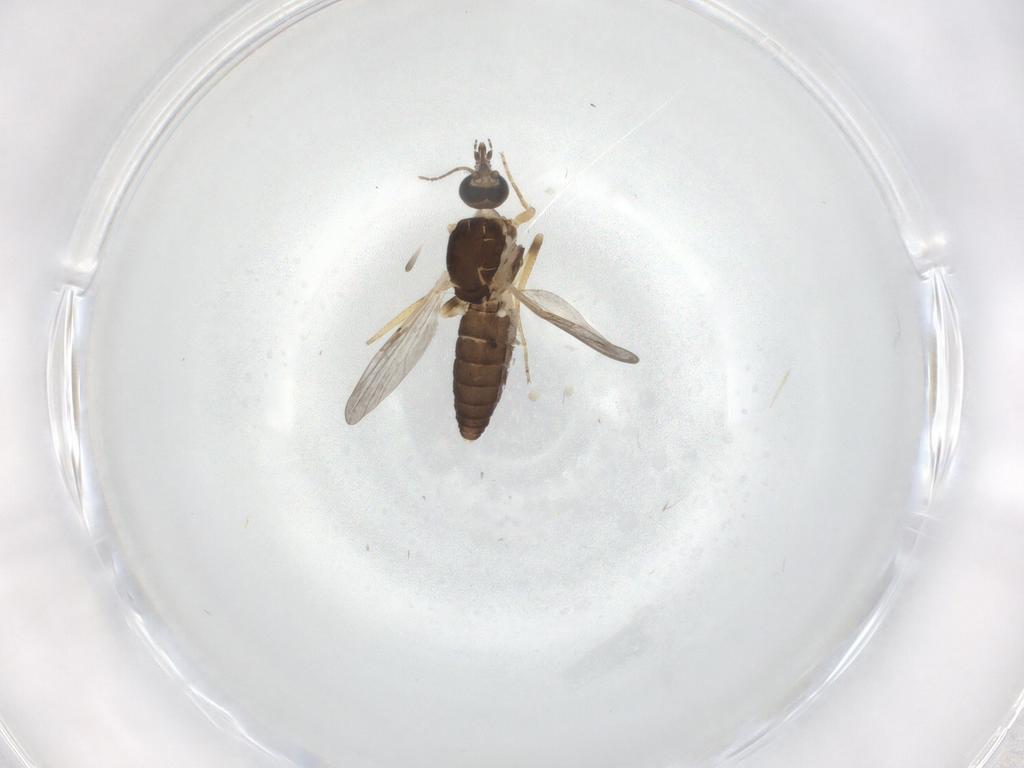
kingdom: Animalia
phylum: Arthropoda
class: Insecta
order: Diptera
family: Ceratopogonidae
